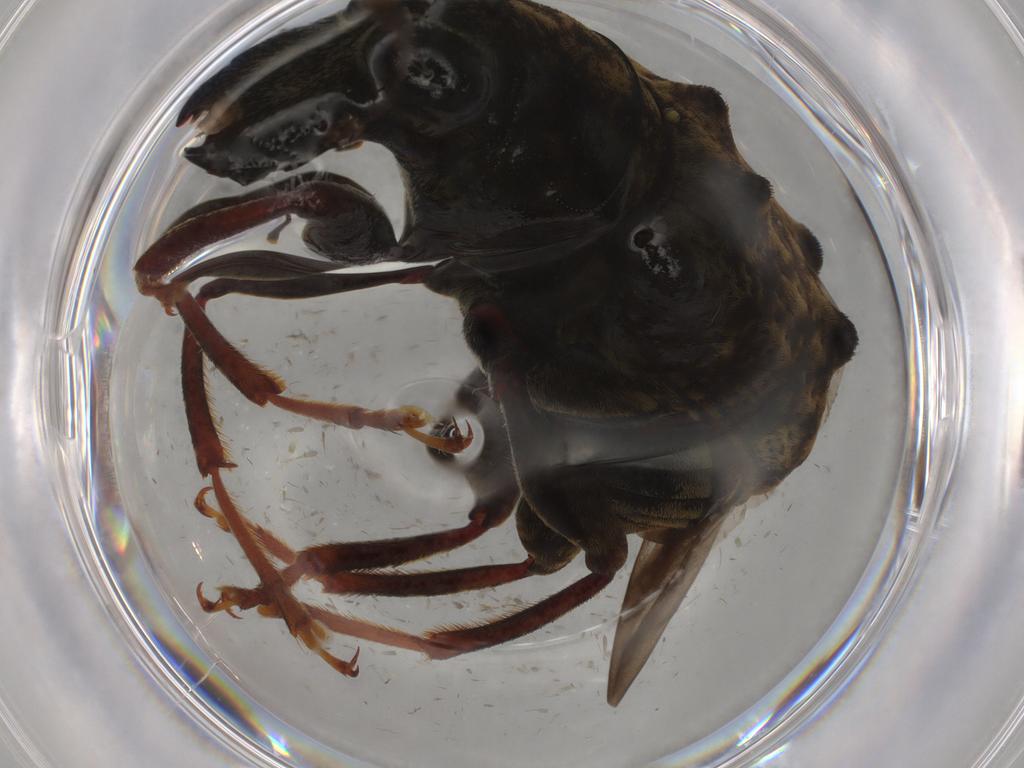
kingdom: Animalia
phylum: Arthropoda
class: Insecta
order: Coleoptera
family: Anthribidae
